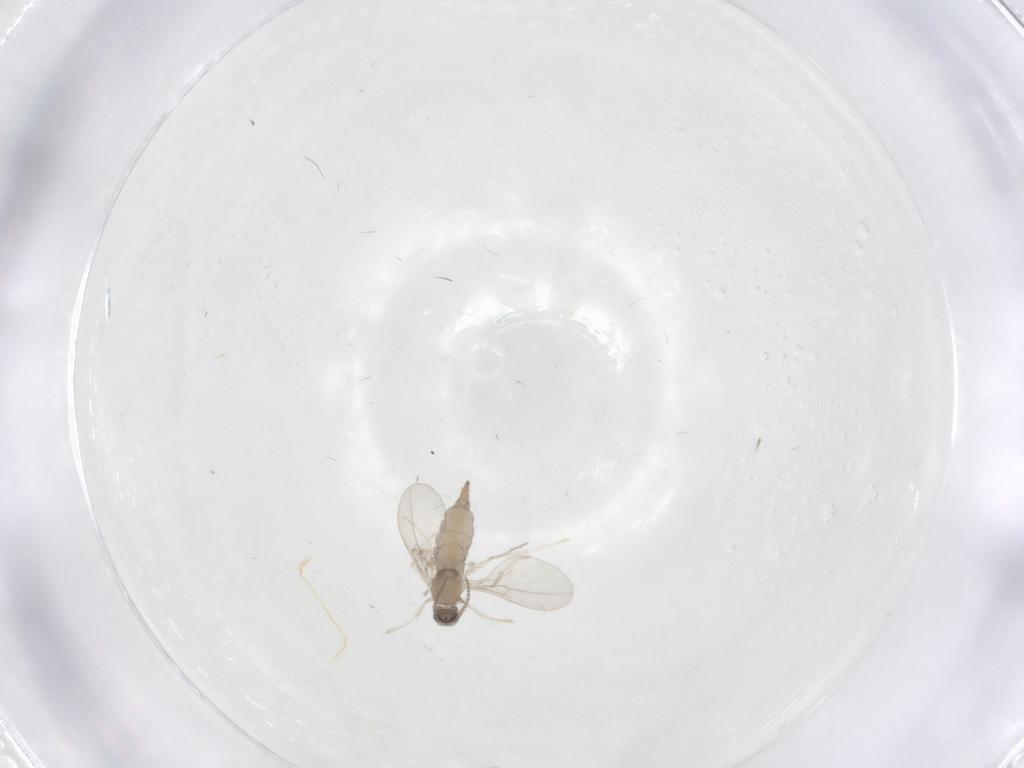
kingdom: Animalia
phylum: Arthropoda
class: Insecta
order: Diptera
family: Cecidomyiidae
